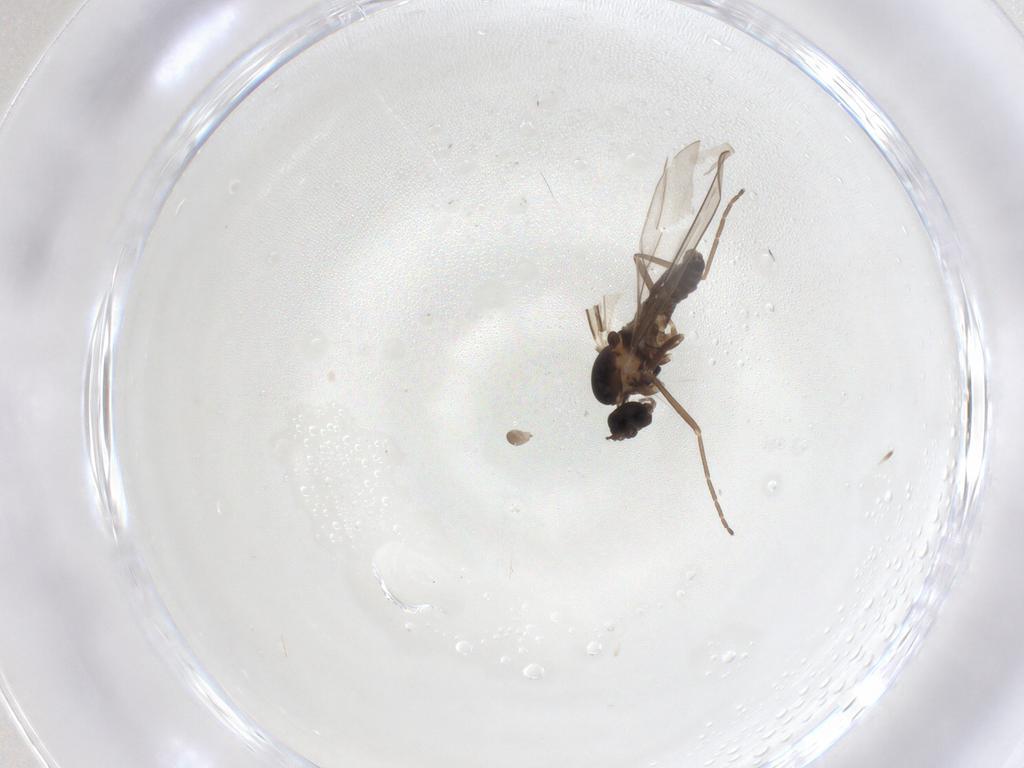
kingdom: Animalia
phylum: Arthropoda
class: Insecta
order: Diptera
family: Cecidomyiidae
